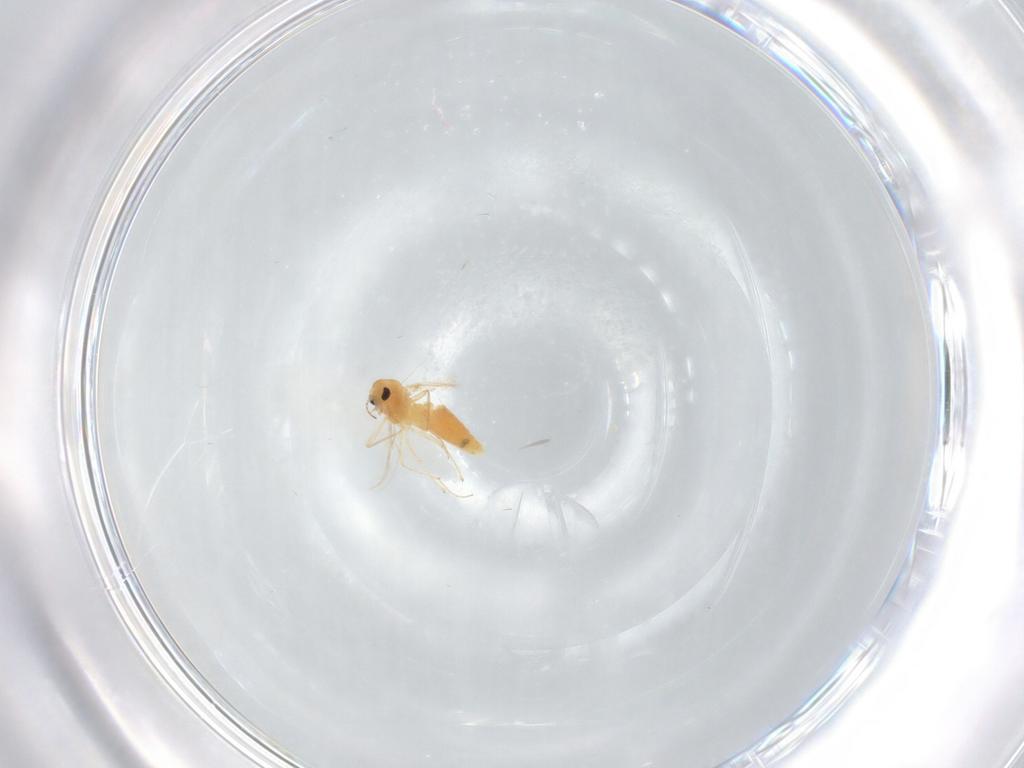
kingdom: Animalia
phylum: Arthropoda
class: Insecta
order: Diptera
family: Chironomidae
